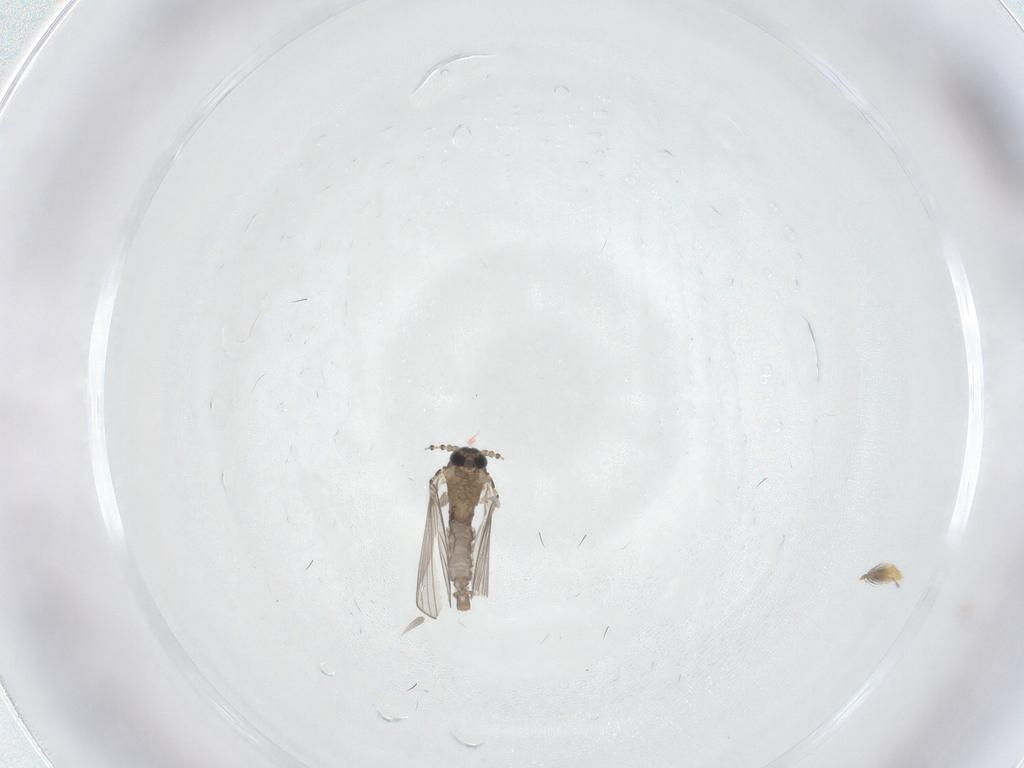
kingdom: Animalia
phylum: Arthropoda
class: Insecta
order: Diptera
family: Psychodidae
